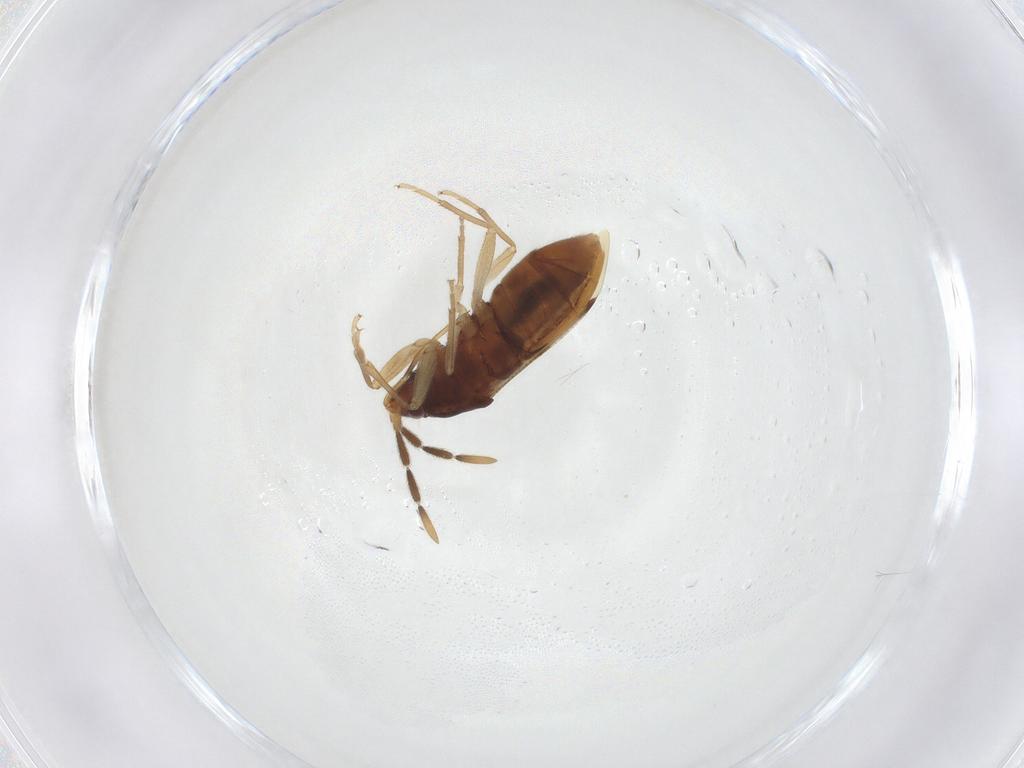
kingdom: Animalia
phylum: Arthropoda
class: Insecta
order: Hemiptera
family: Rhyparochromidae
